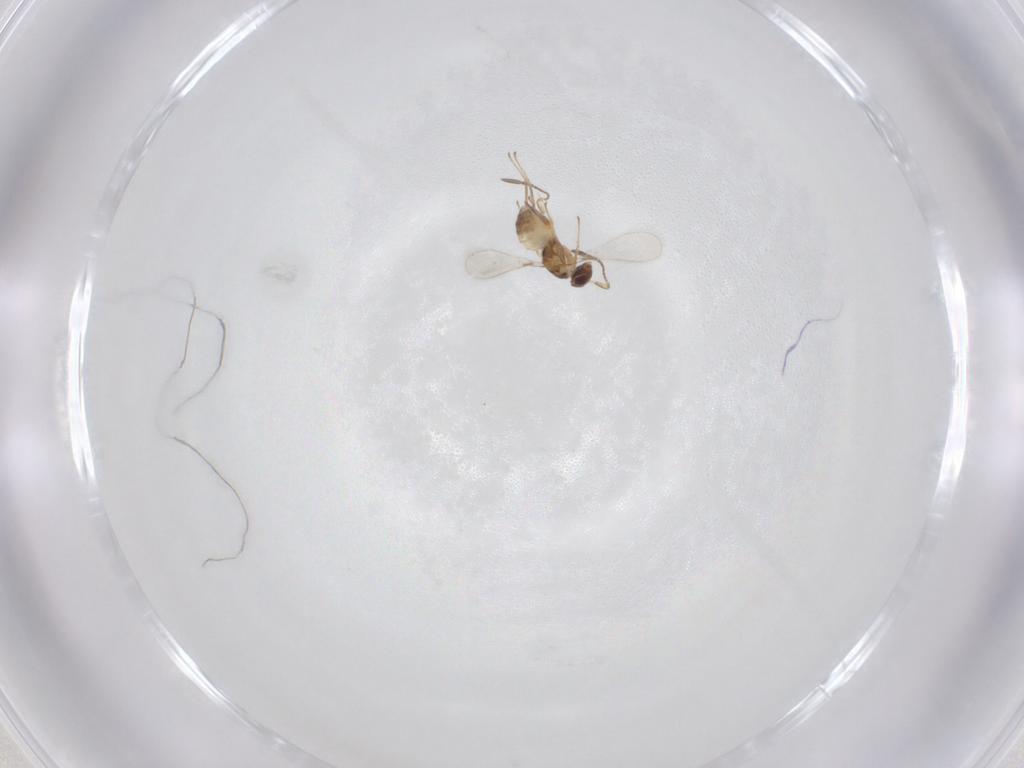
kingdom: Animalia
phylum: Arthropoda
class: Insecta
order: Hymenoptera
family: Mymaridae
